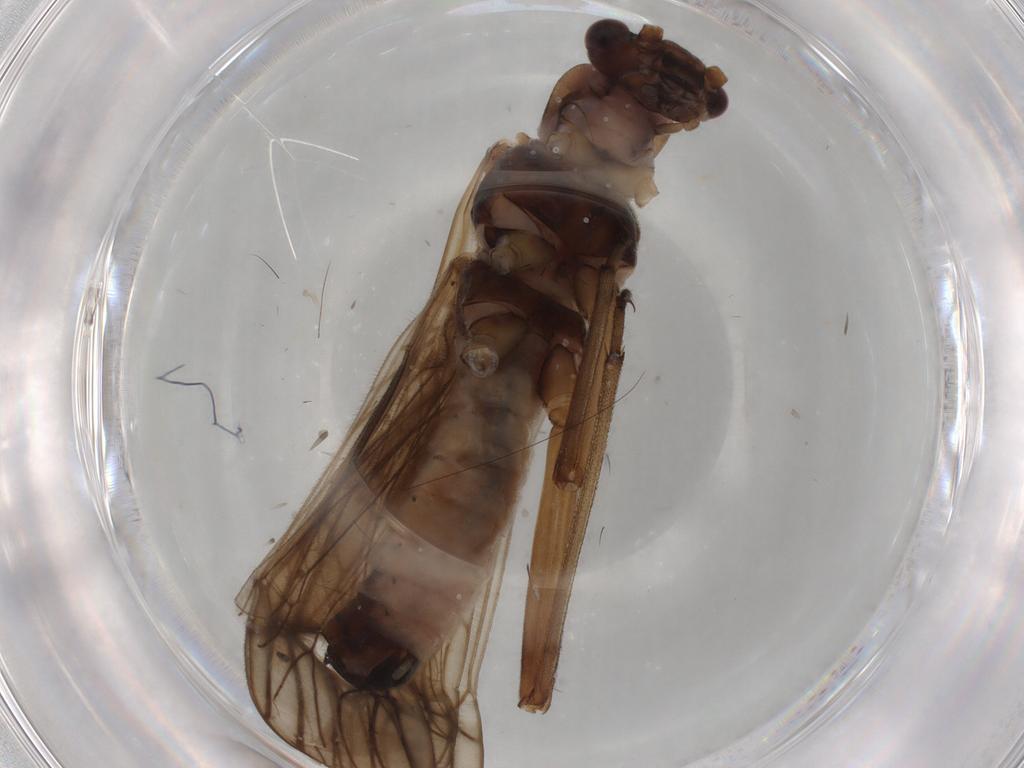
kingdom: Animalia
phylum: Arthropoda
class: Insecta
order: Plecoptera
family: Nemouridae
